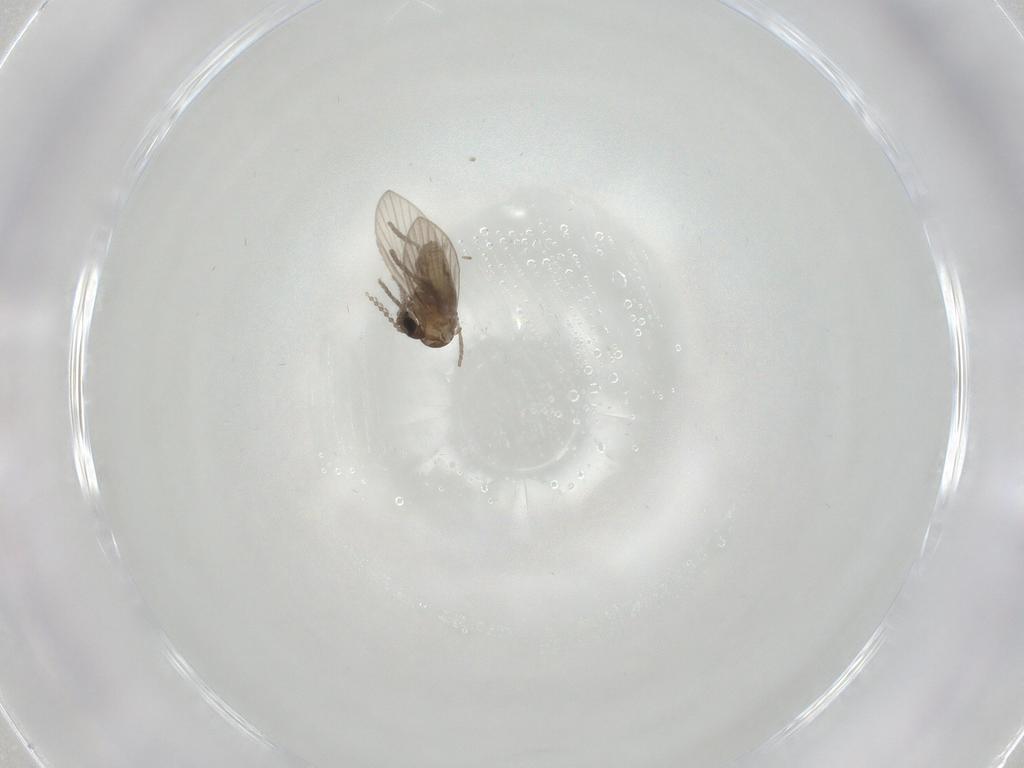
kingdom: Animalia
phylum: Arthropoda
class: Insecta
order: Diptera
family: Psychodidae
